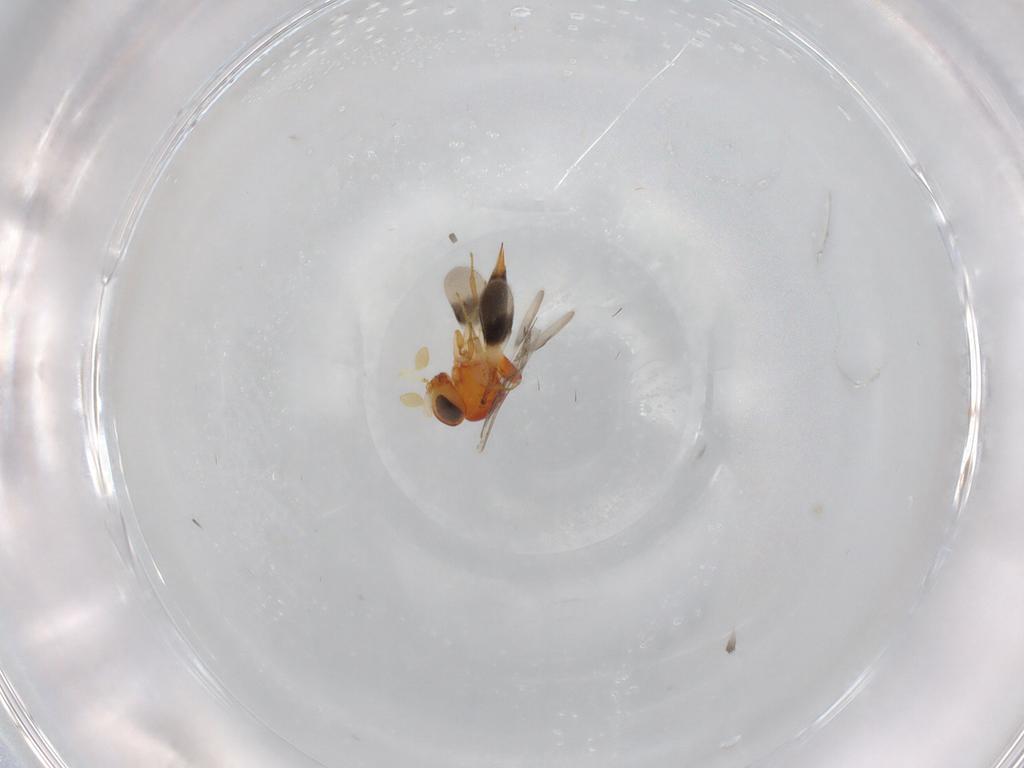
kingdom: Animalia
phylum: Arthropoda
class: Insecta
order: Hymenoptera
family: Scelionidae
